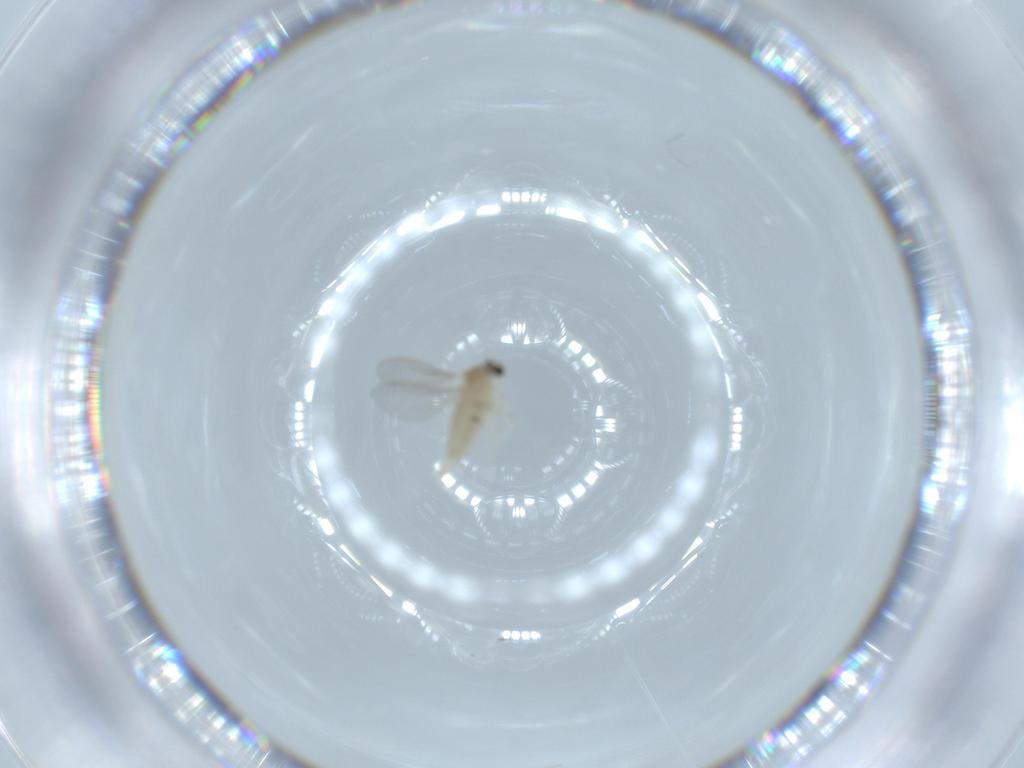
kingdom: Animalia
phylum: Arthropoda
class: Insecta
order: Diptera
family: Cecidomyiidae
